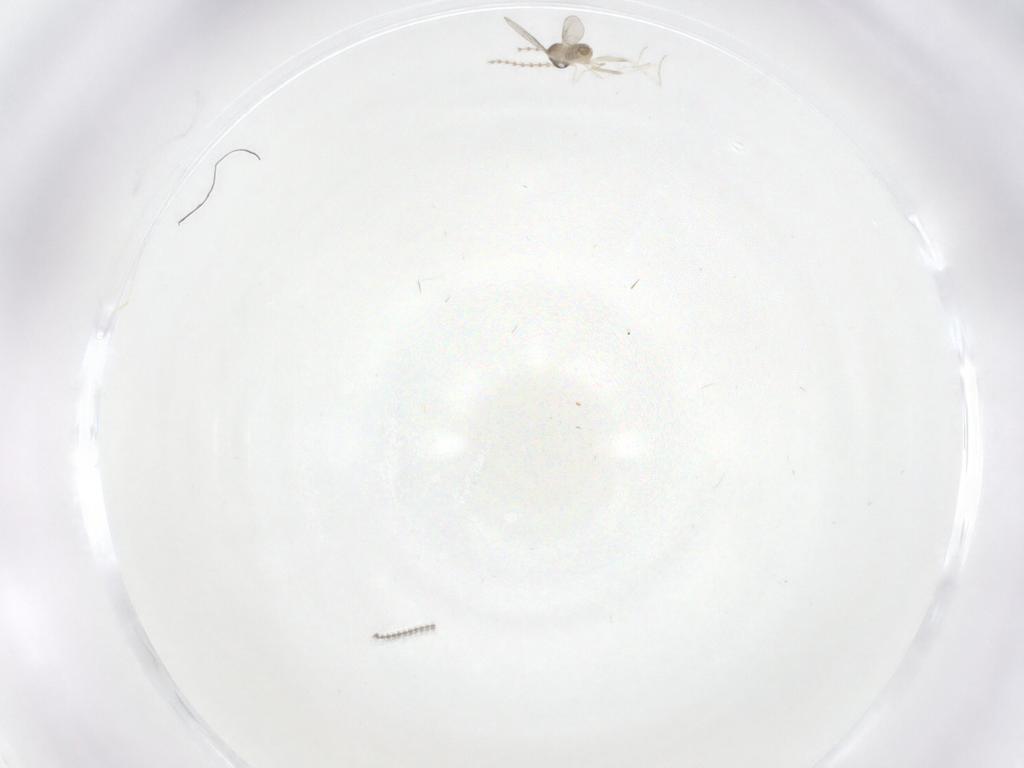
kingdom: Animalia
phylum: Arthropoda
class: Insecta
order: Diptera
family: Cecidomyiidae
